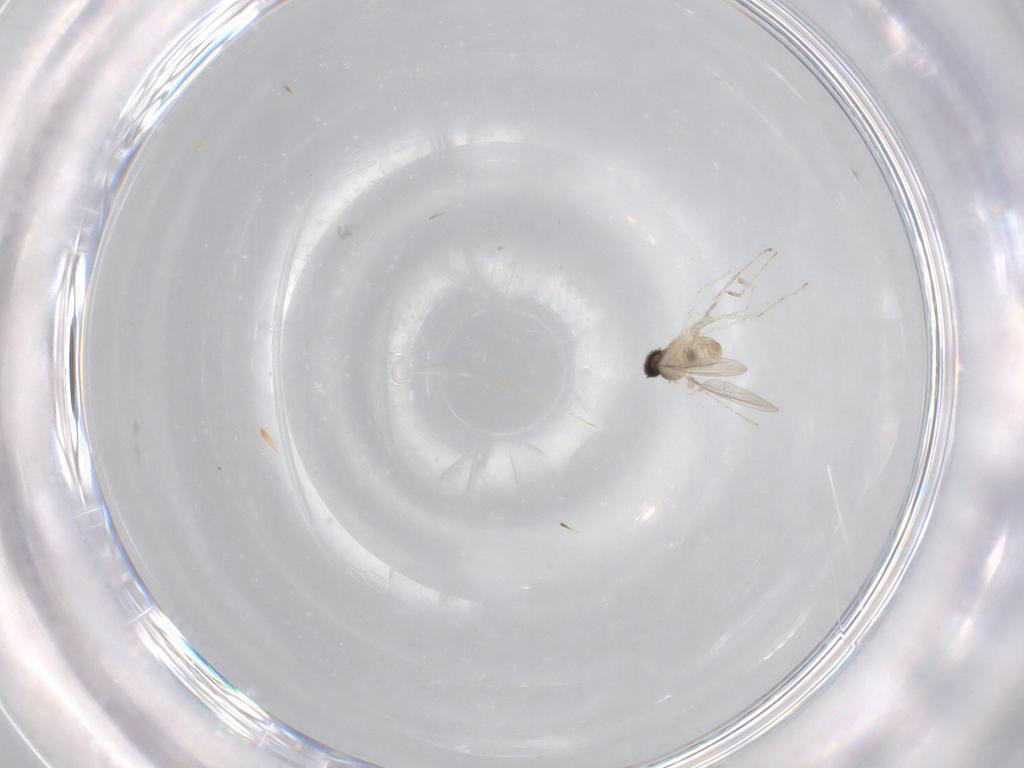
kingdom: Animalia
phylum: Arthropoda
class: Insecta
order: Diptera
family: Cecidomyiidae
